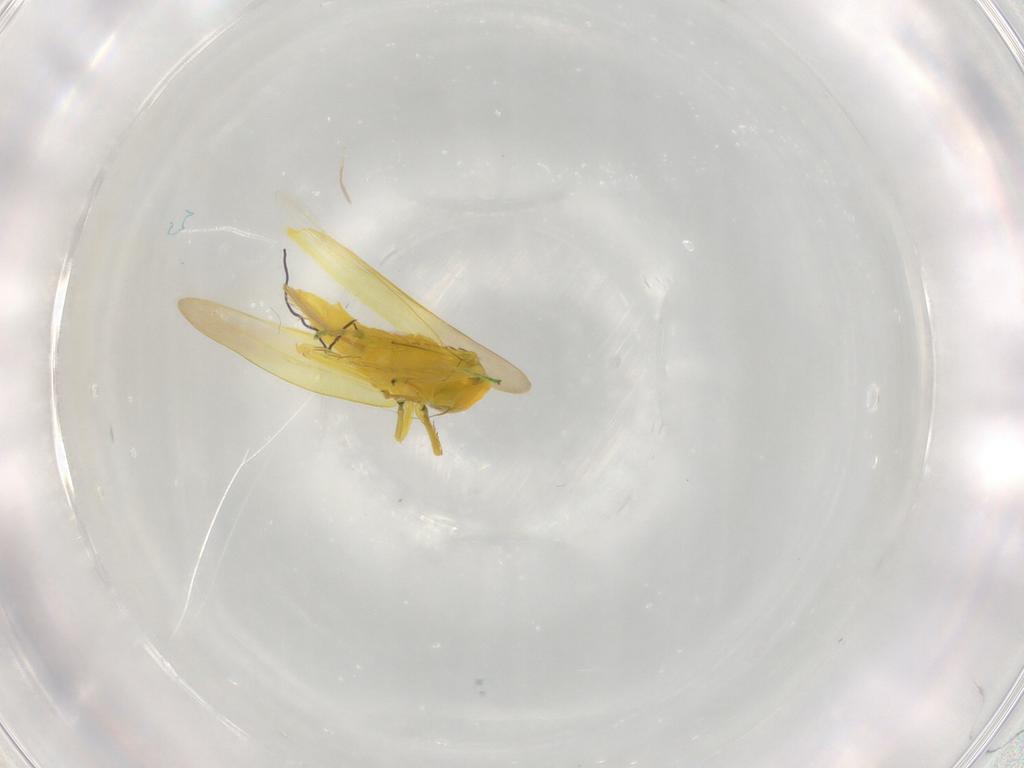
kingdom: Animalia
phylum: Arthropoda
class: Insecta
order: Hemiptera
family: Cicadellidae
